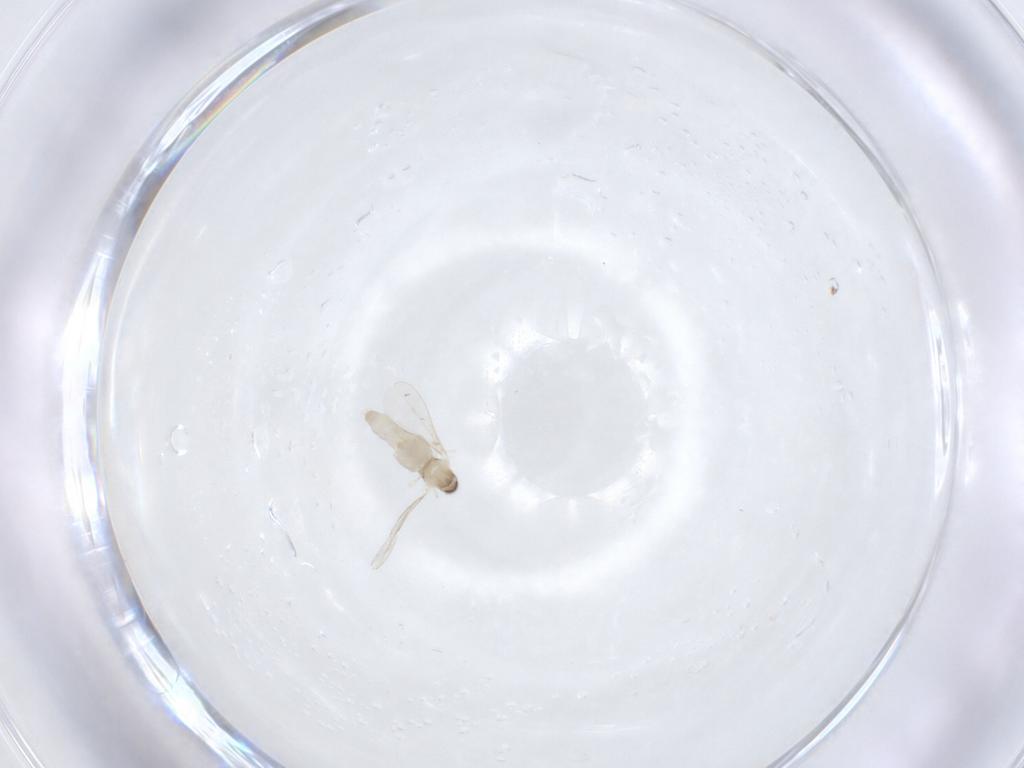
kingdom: Animalia
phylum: Arthropoda
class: Insecta
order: Diptera
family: Cecidomyiidae
